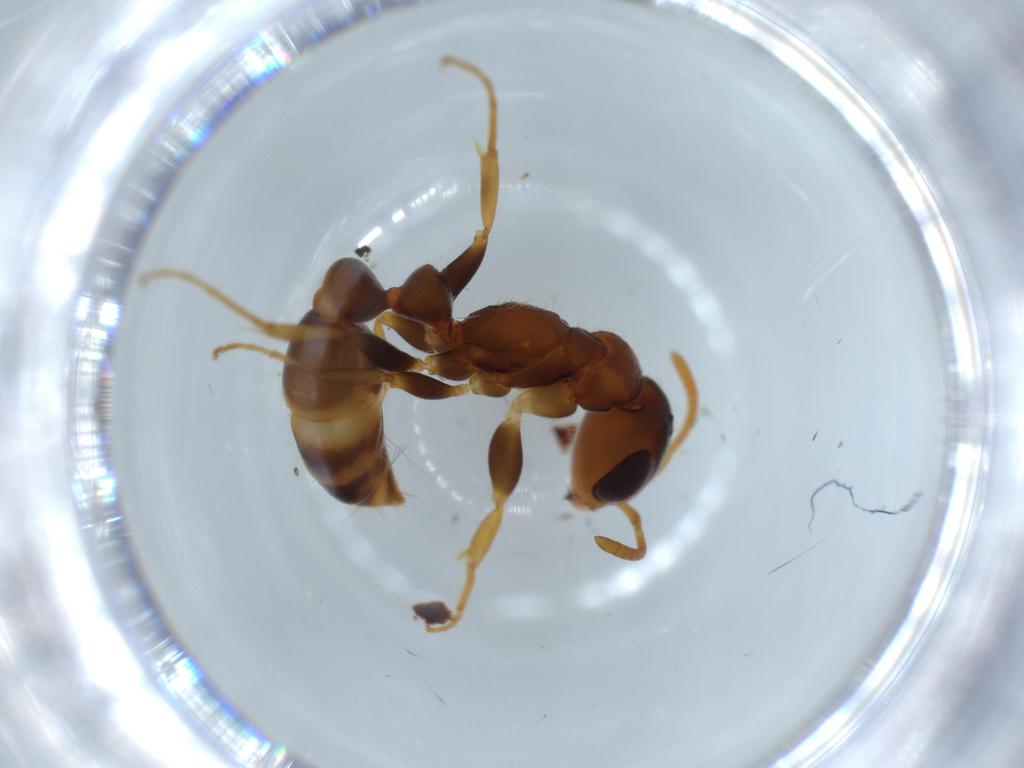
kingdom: Animalia
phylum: Arthropoda
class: Insecta
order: Hymenoptera
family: Formicidae
